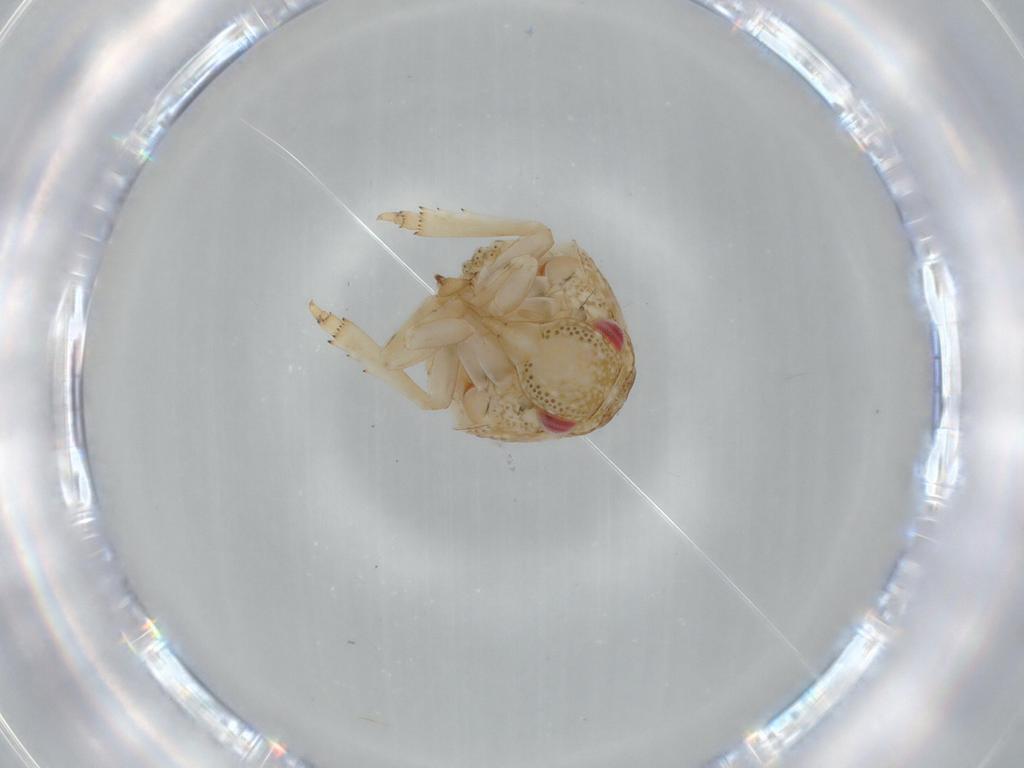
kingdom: Animalia
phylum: Arthropoda
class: Insecta
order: Hemiptera
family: Acanaloniidae
